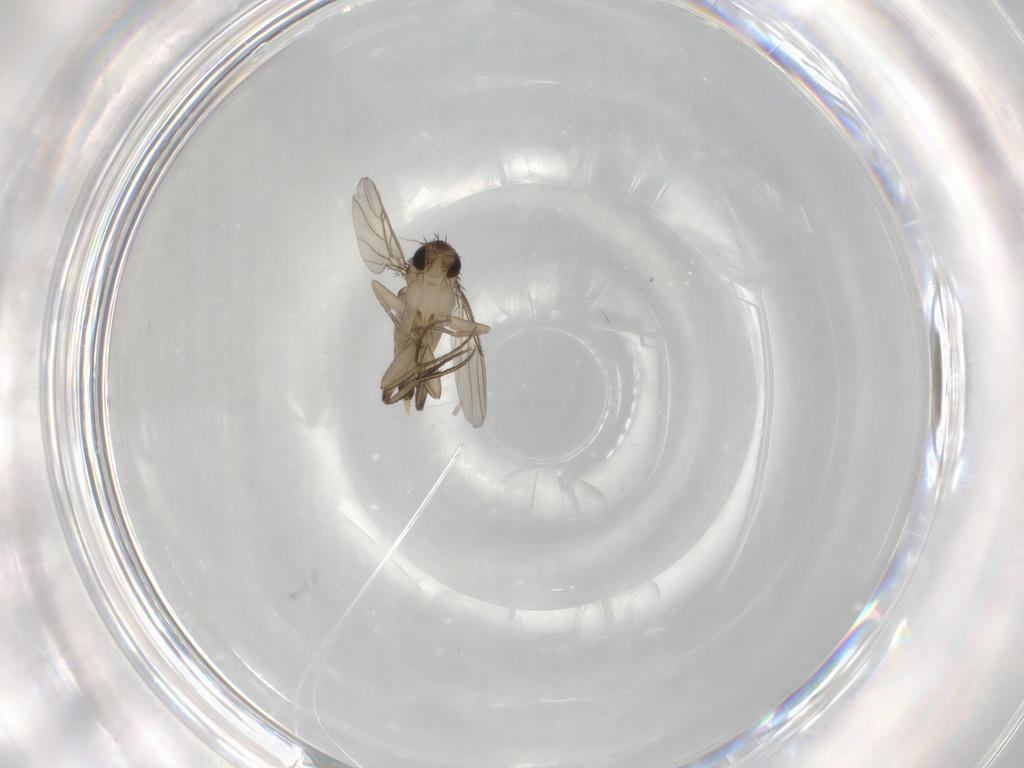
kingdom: Animalia
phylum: Arthropoda
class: Insecta
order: Diptera
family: Phoridae
